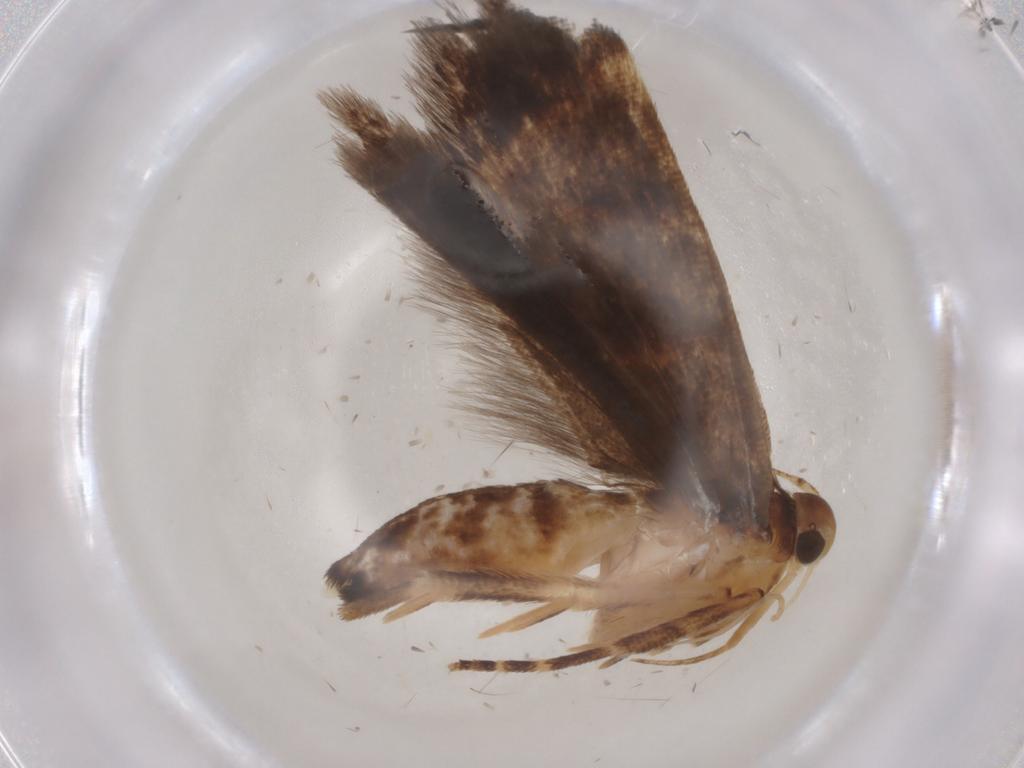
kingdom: Animalia
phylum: Arthropoda
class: Insecta
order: Lepidoptera
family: Gelechiidae
